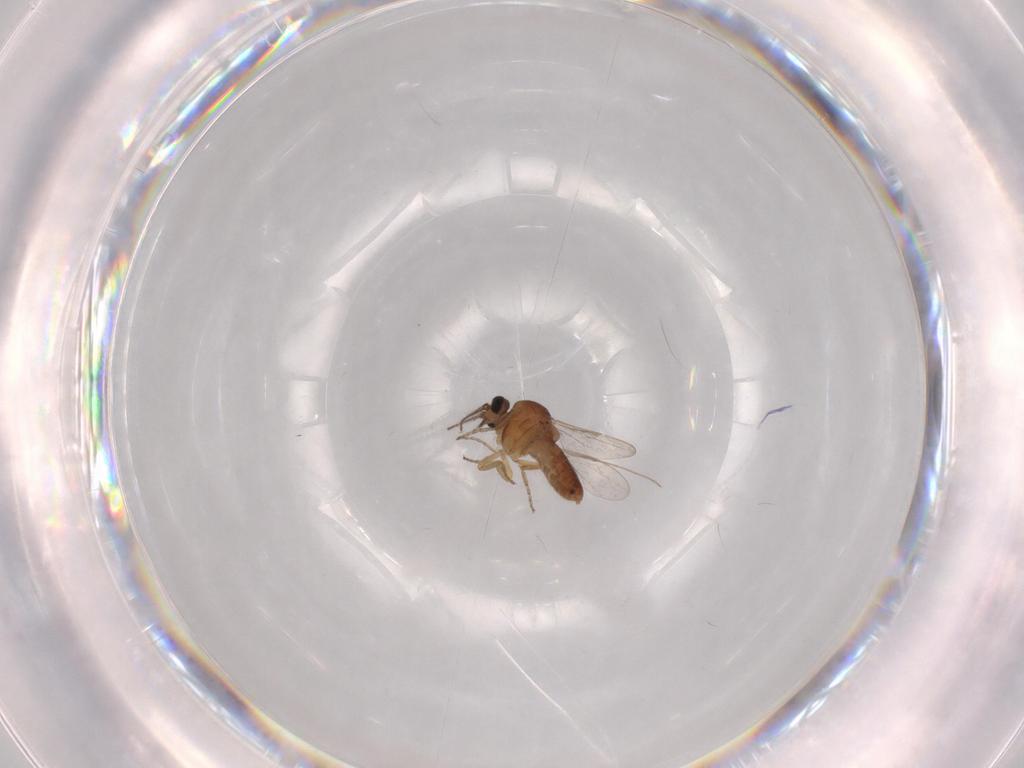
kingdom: Animalia
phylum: Arthropoda
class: Insecta
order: Diptera
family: Ceratopogonidae
